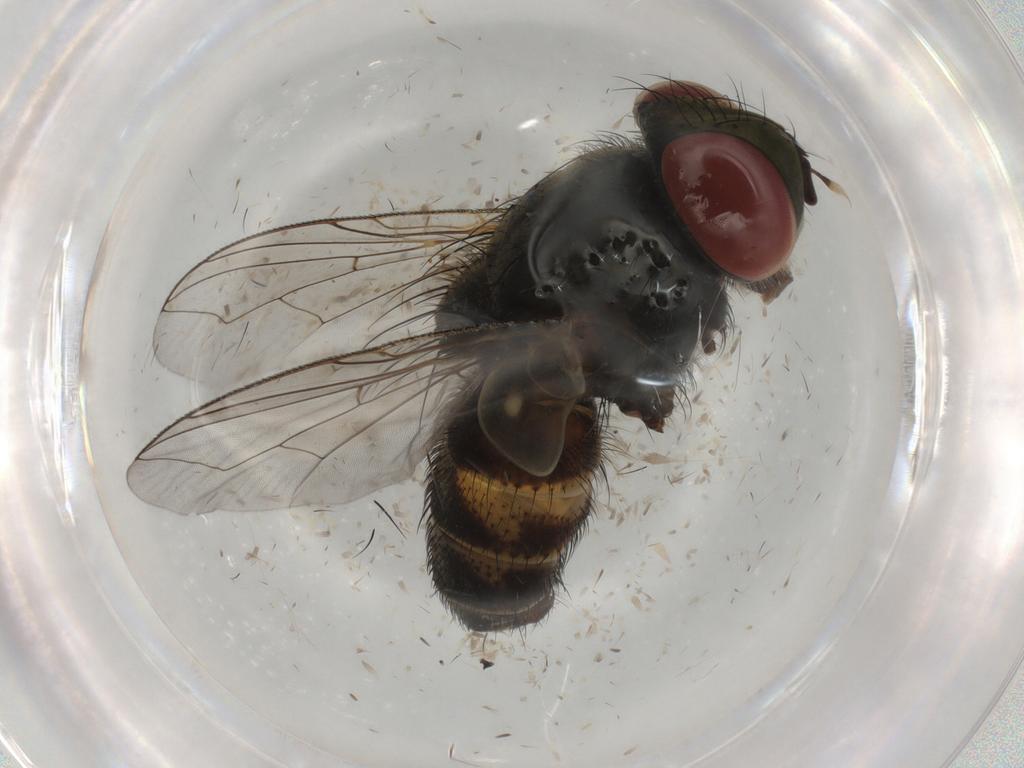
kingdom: Animalia
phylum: Arthropoda
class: Insecta
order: Diptera
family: Sarcophagidae
